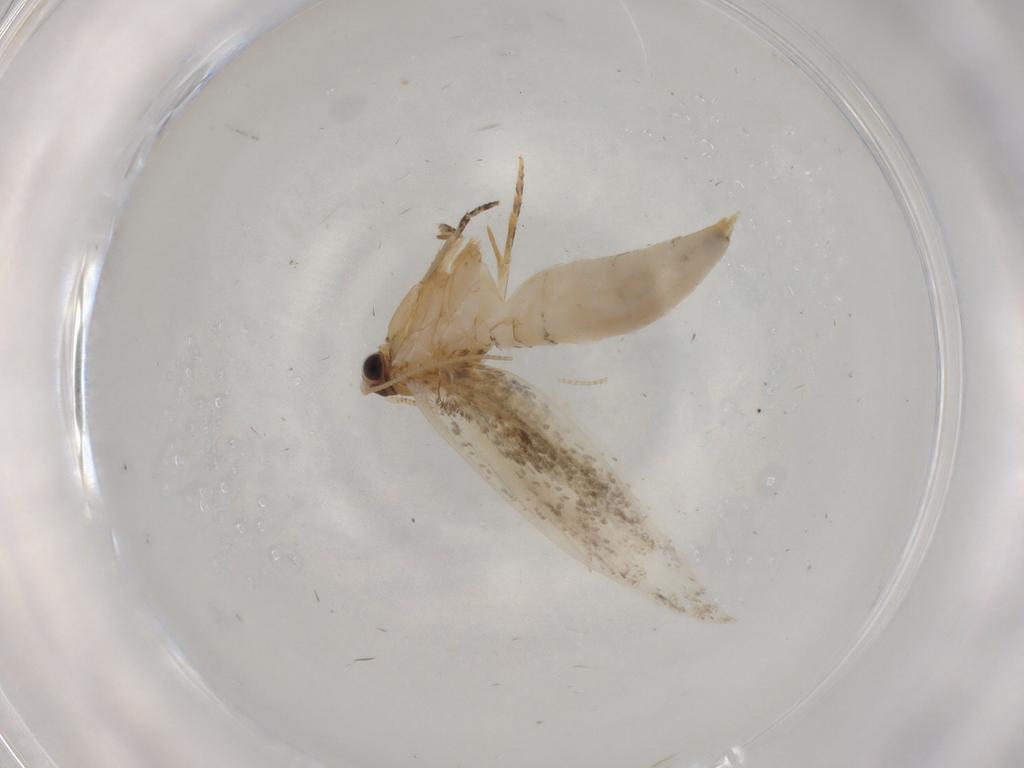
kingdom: Animalia
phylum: Arthropoda
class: Insecta
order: Lepidoptera
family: Tineidae
